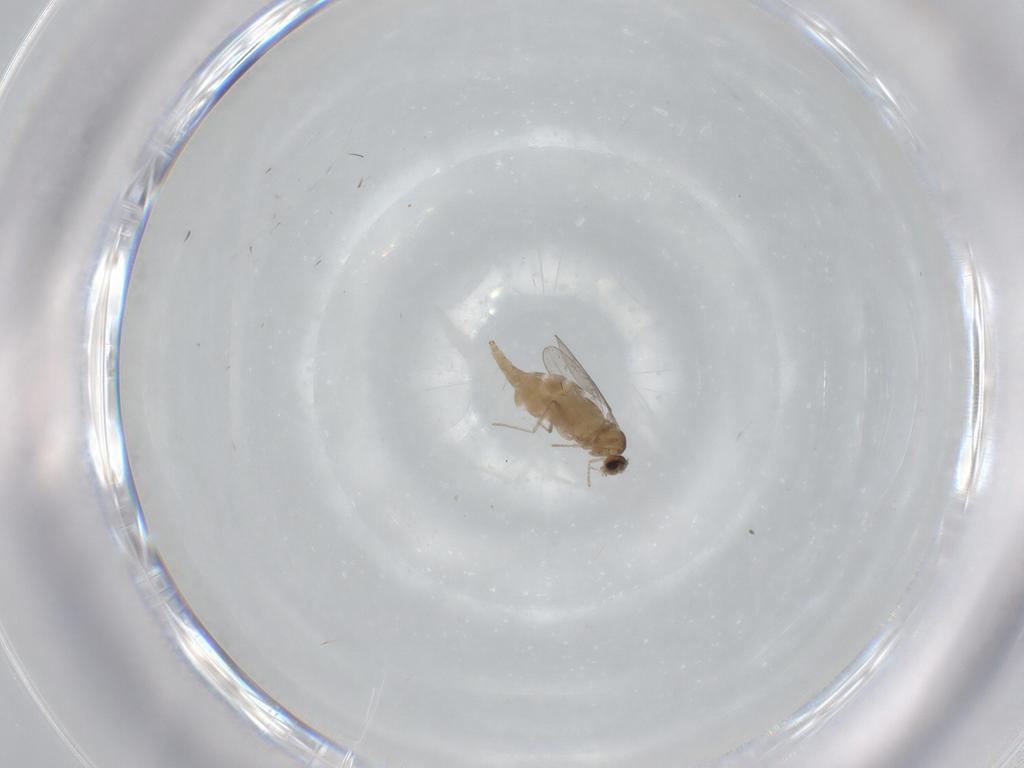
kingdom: Animalia
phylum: Arthropoda
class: Insecta
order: Diptera
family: Cecidomyiidae
